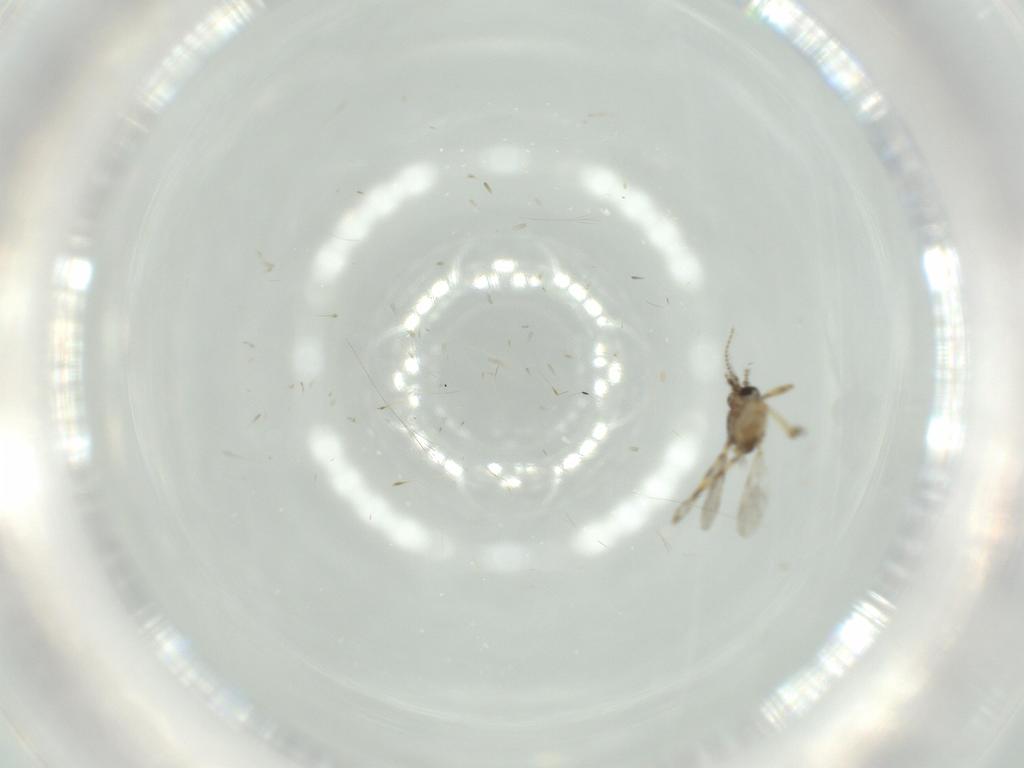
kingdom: Animalia
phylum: Arthropoda
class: Insecta
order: Diptera
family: Ceratopogonidae
